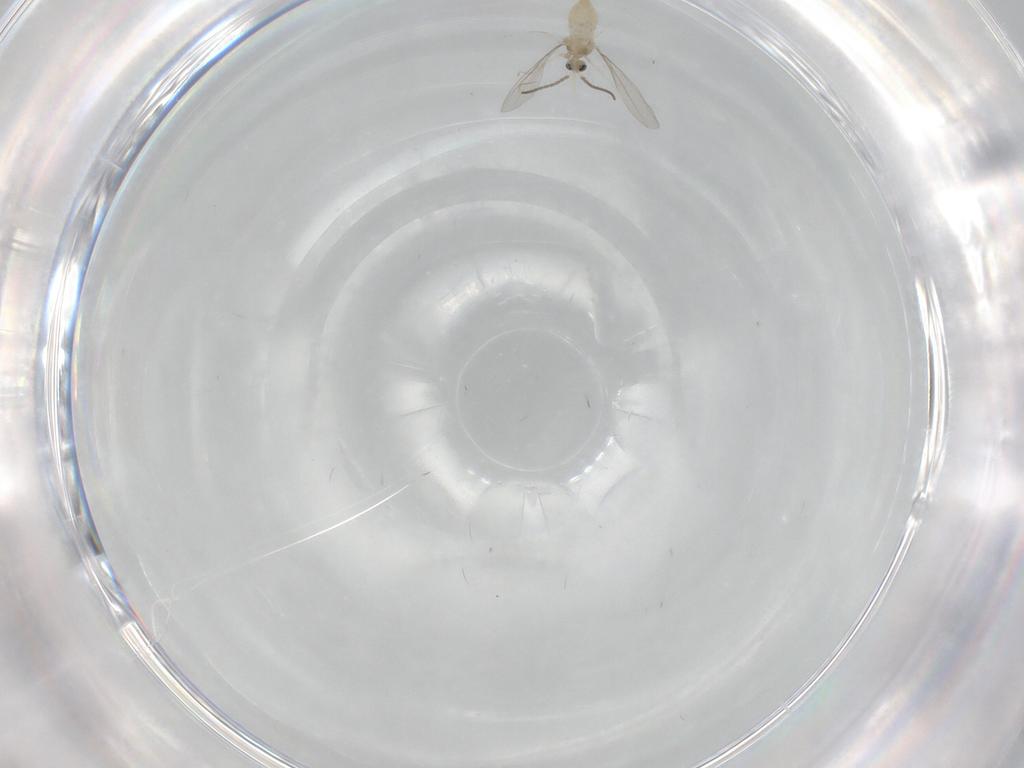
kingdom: Animalia
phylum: Arthropoda
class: Insecta
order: Diptera
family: Cecidomyiidae
